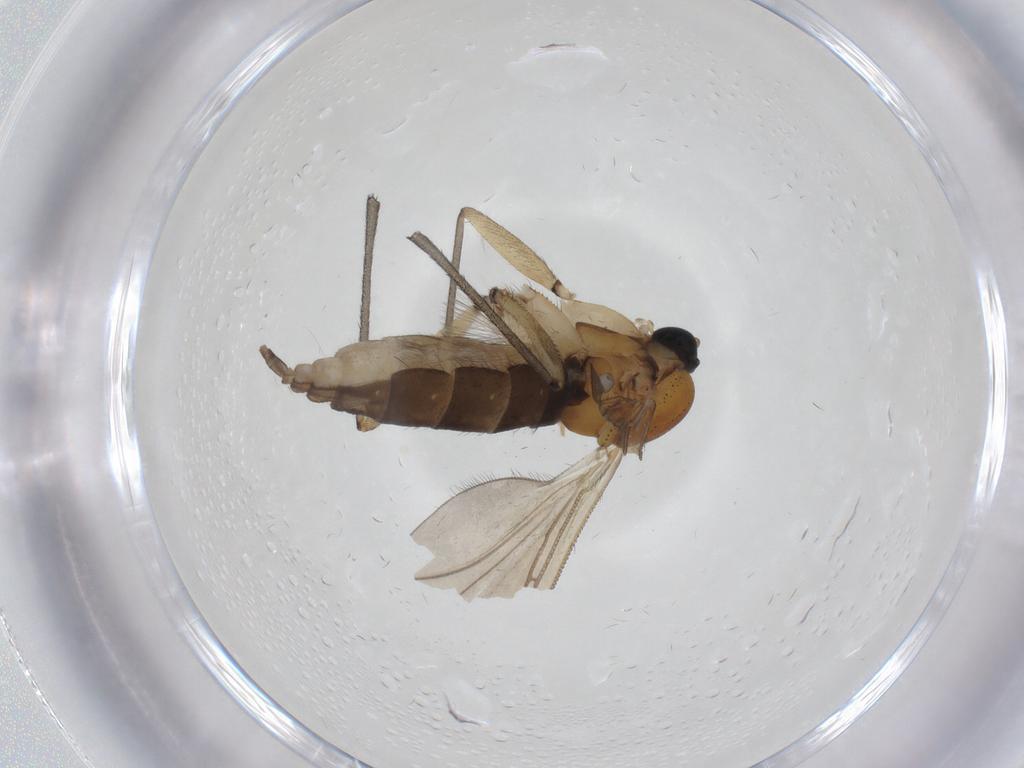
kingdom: Animalia
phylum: Arthropoda
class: Insecta
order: Diptera
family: Sciaridae
